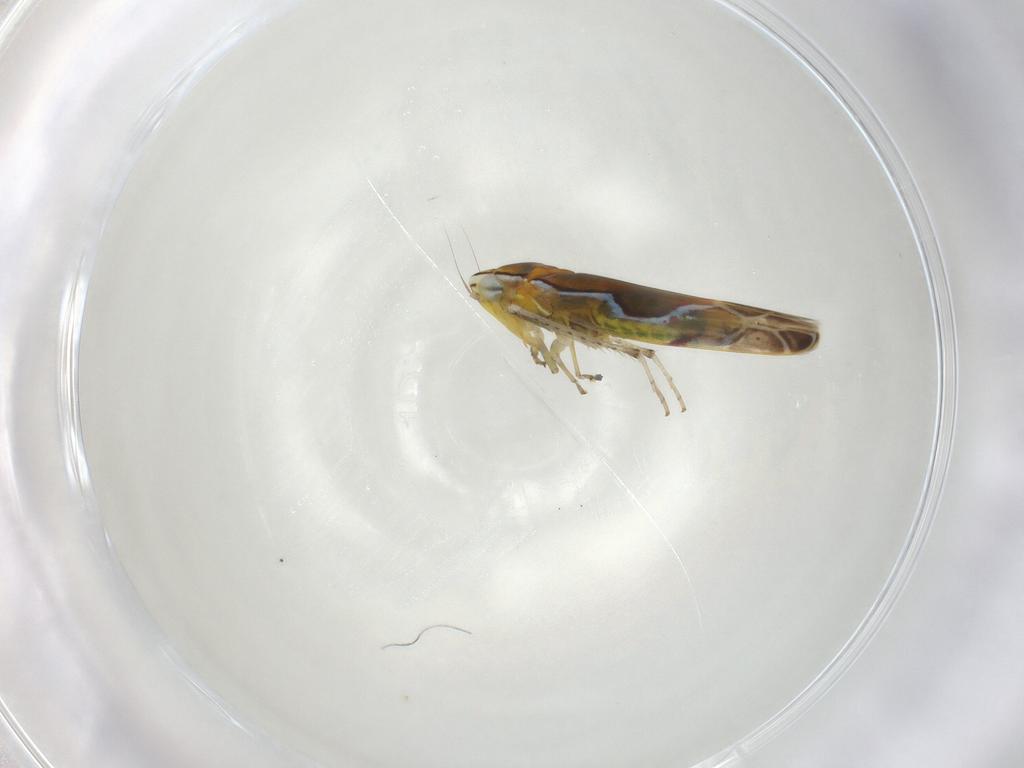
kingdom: Animalia
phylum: Arthropoda
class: Insecta
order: Hemiptera
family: Cicadellidae
